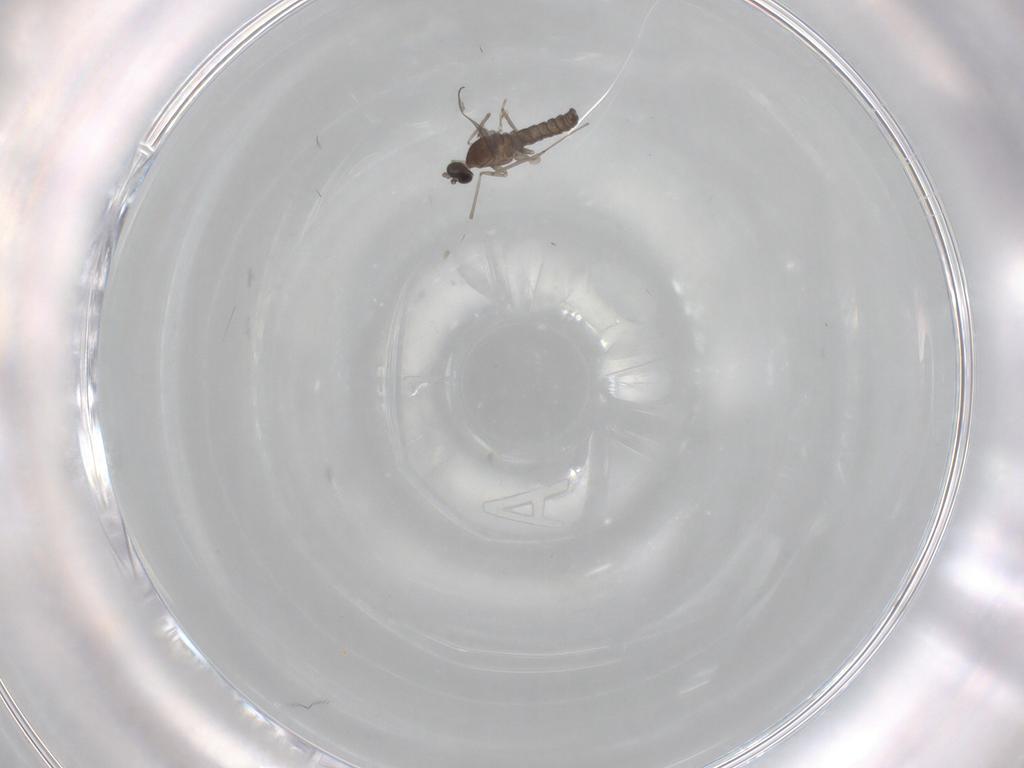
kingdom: Animalia
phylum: Arthropoda
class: Insecta
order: Diptera
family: Cecidomyiidae
